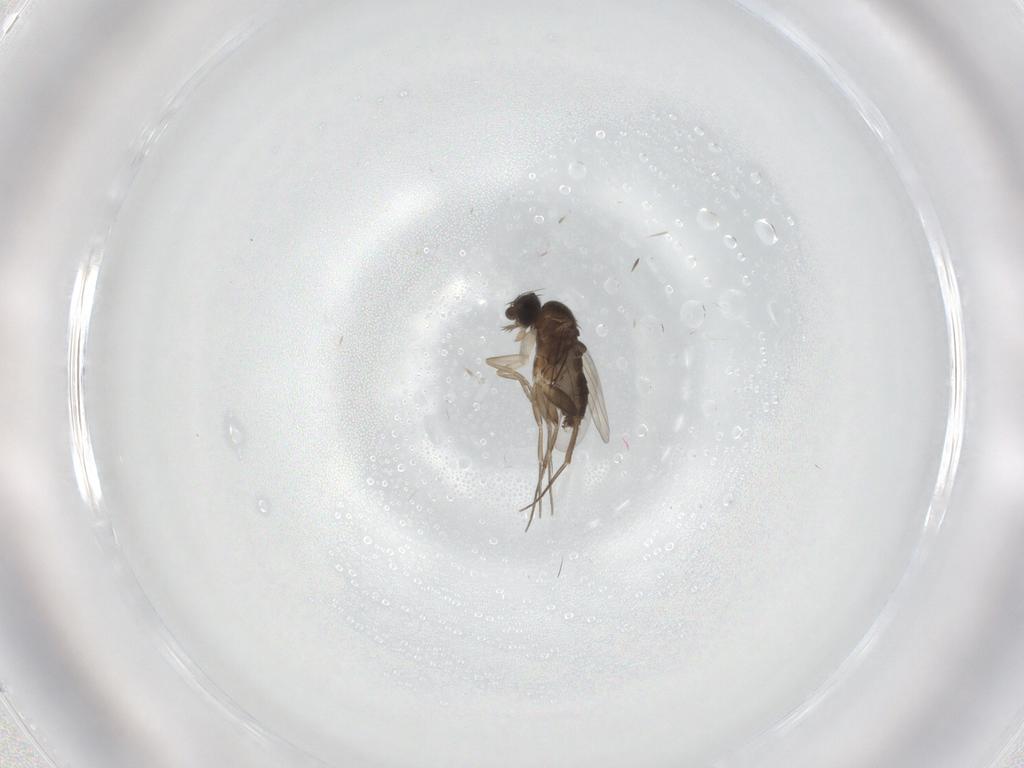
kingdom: Animalia
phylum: Arthropoda
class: Insecta
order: Diptera
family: Phoridae
